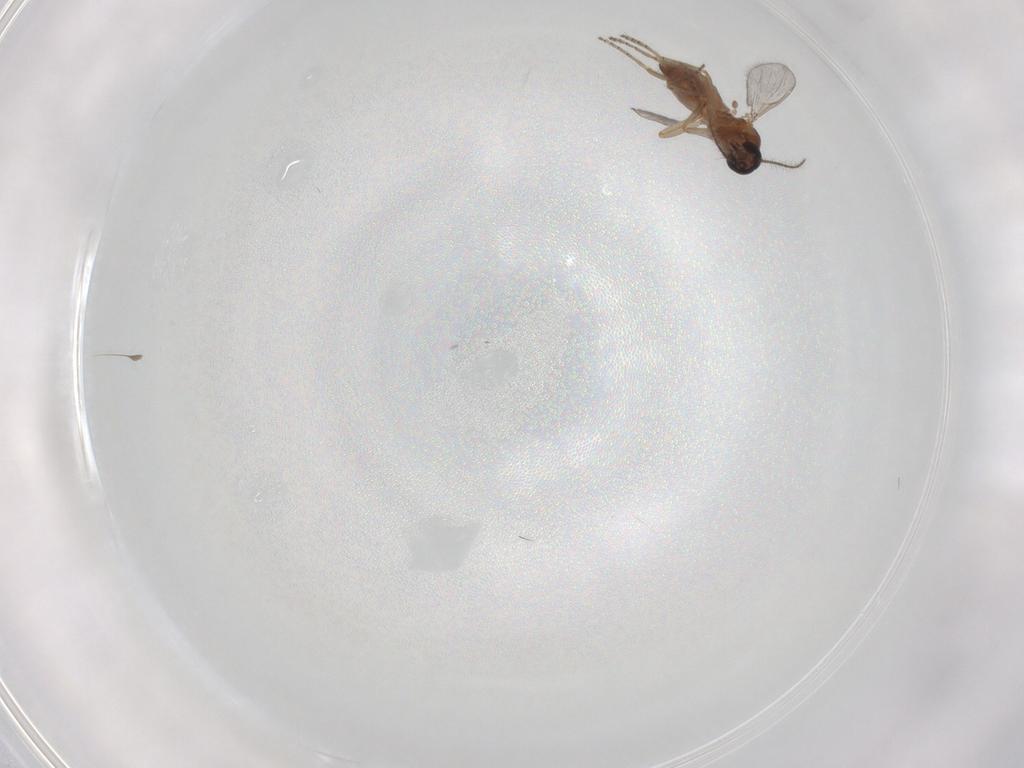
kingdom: Animalia
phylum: Arthropoda
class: Insecta
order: Diptera
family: Ceratopogonidae
